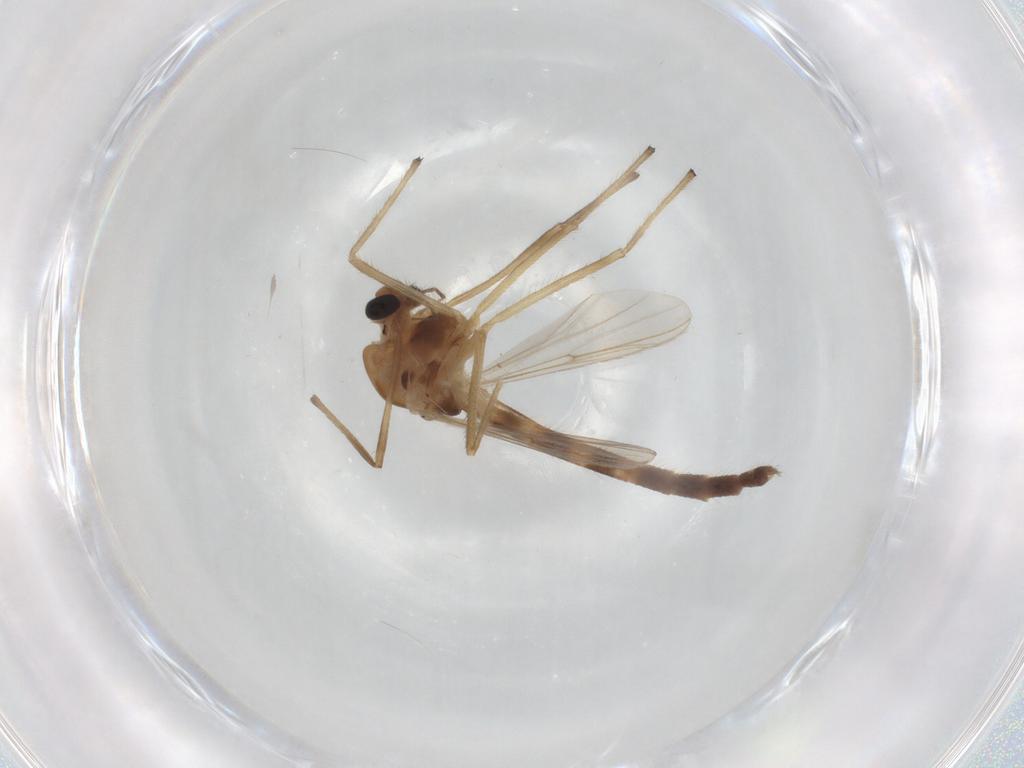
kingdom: Animalia
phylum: Arthropoda
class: Insecta
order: Diptera
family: Chironomidae
